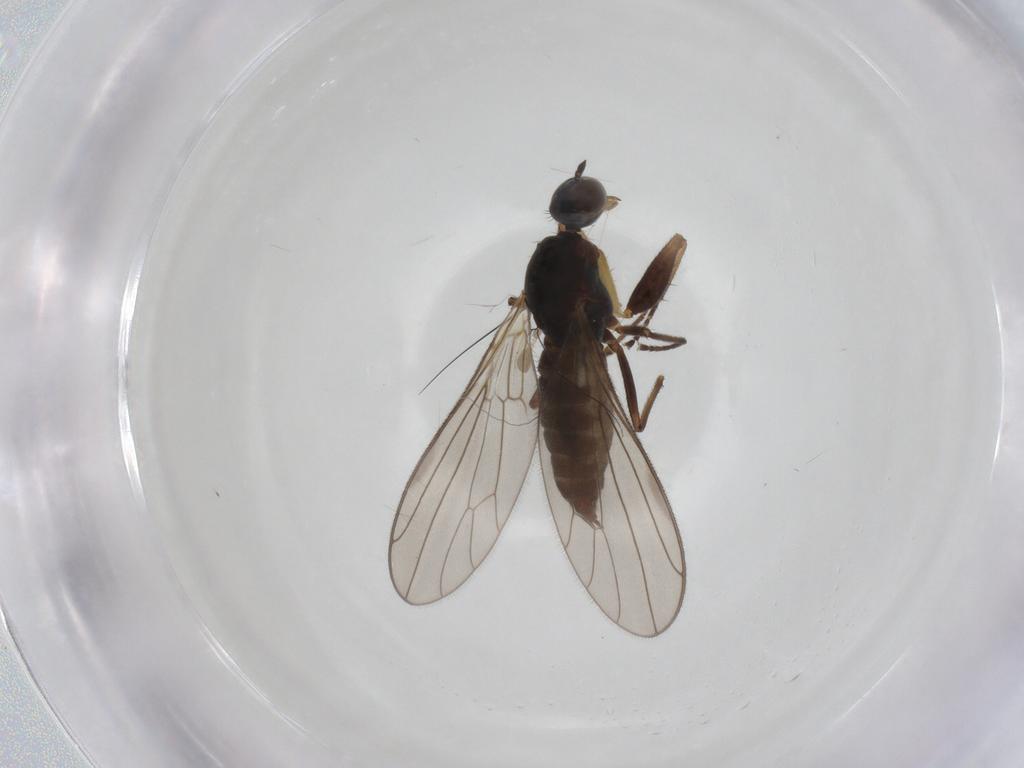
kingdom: Animalia
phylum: Arthropoda
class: Insecta
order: Diptera
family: Empididae
